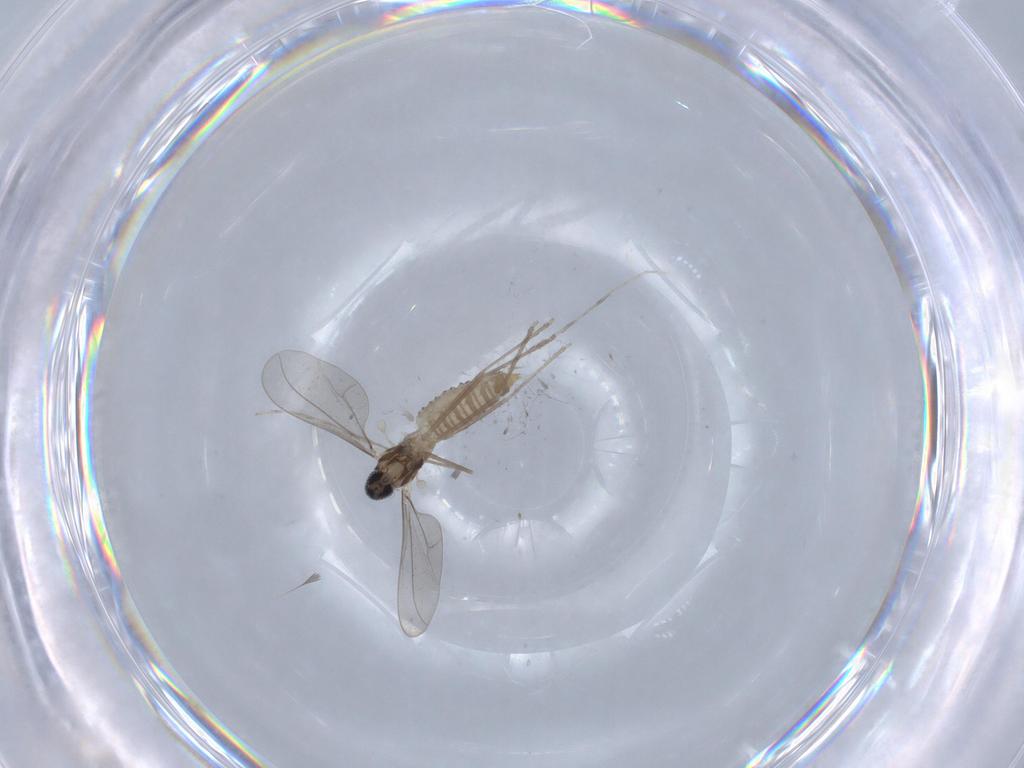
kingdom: Animalia
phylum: Arthropoda
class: Insecta
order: Diptera
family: Cecidomyiidae
